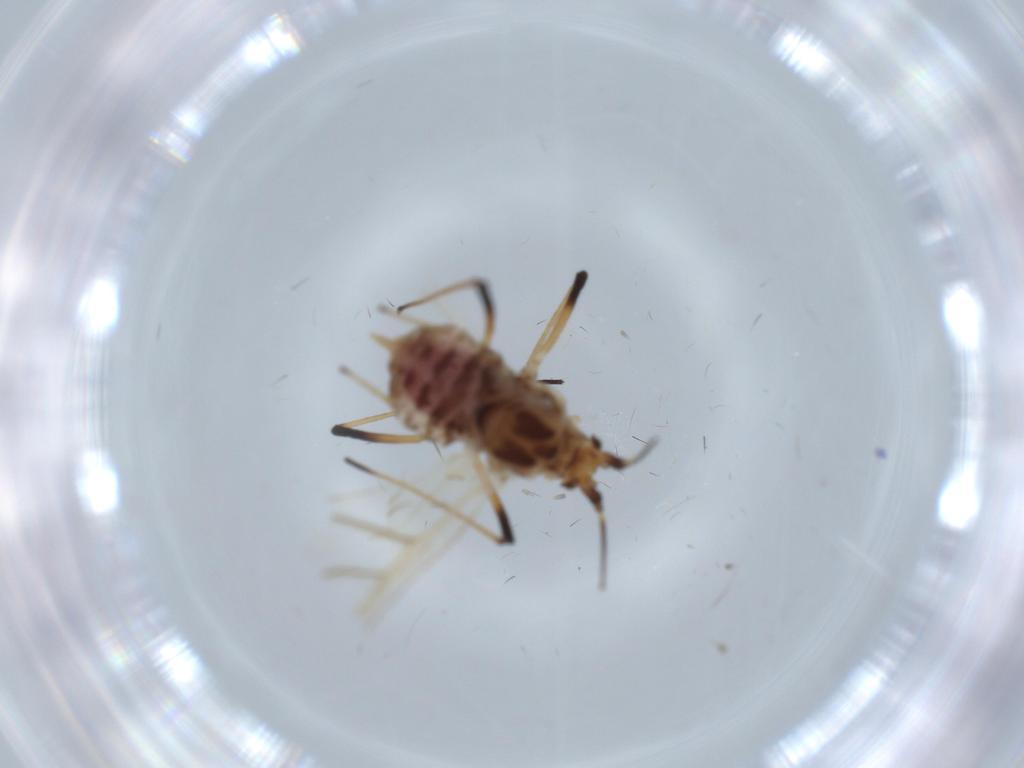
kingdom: Animalia
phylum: Arthropoda
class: Insecta
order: Hemiptera
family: Aphididae
